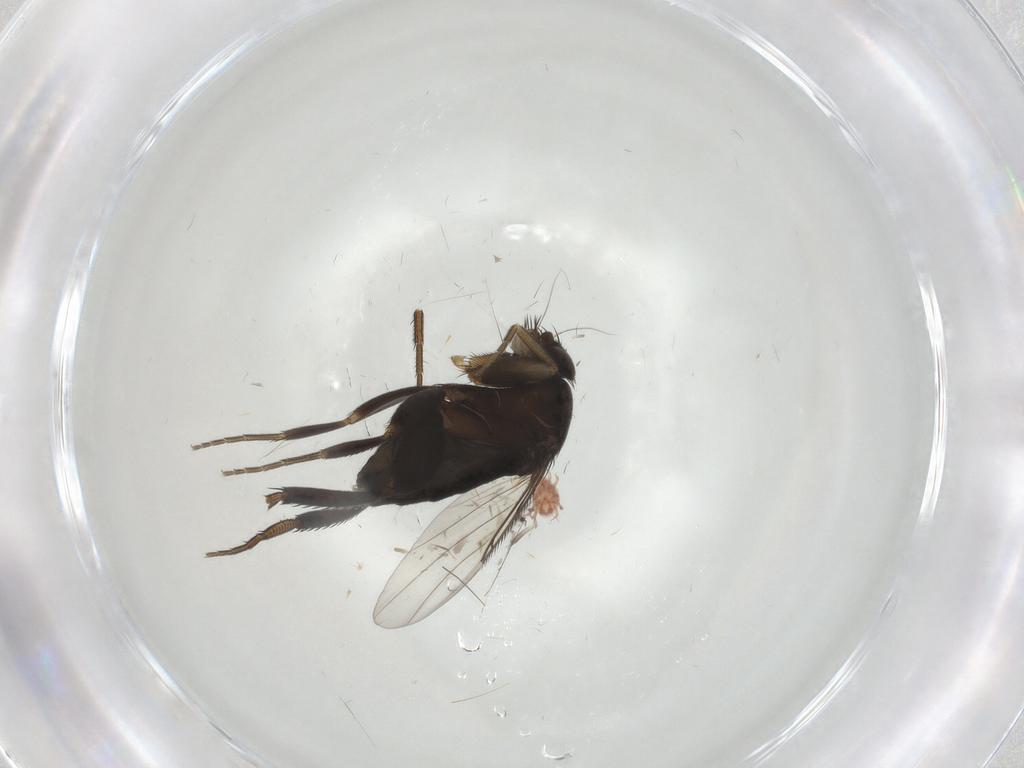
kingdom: Animalia
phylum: Arthropoda
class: Insecta
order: Diptera
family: Phoridae
